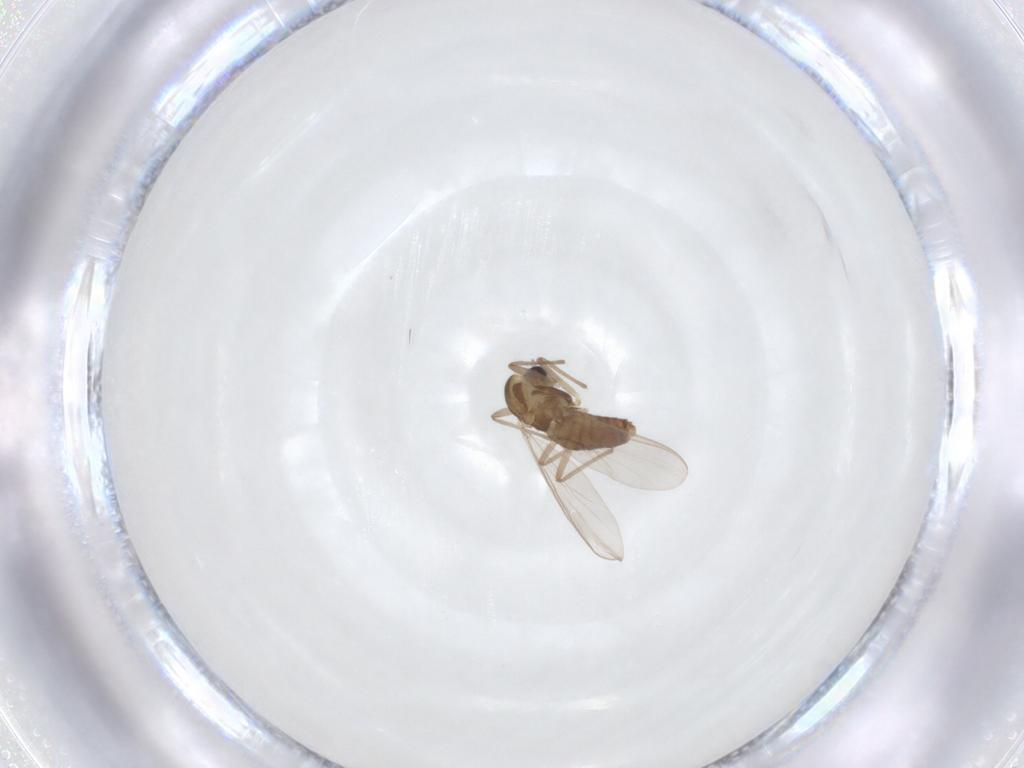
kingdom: Animalia
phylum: Arthropoda
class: Insecta
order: Diptera
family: Chironomidae
